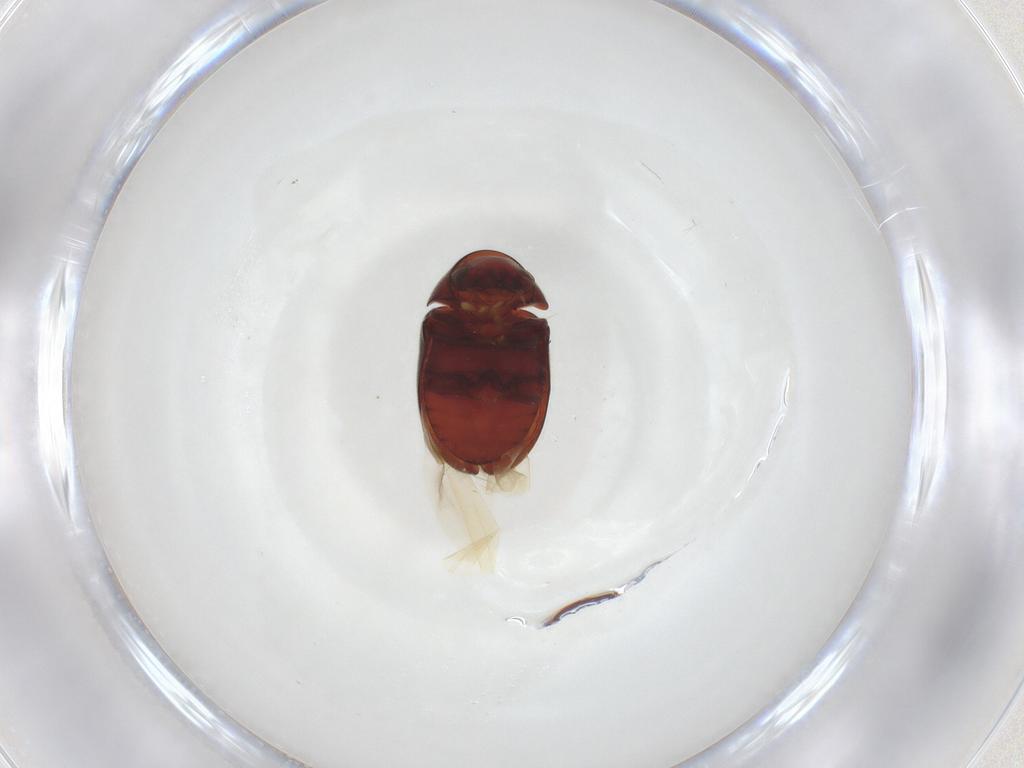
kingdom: Animalia
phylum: Arthropoda
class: Insecta
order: Coleoptera
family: Ptinidae
